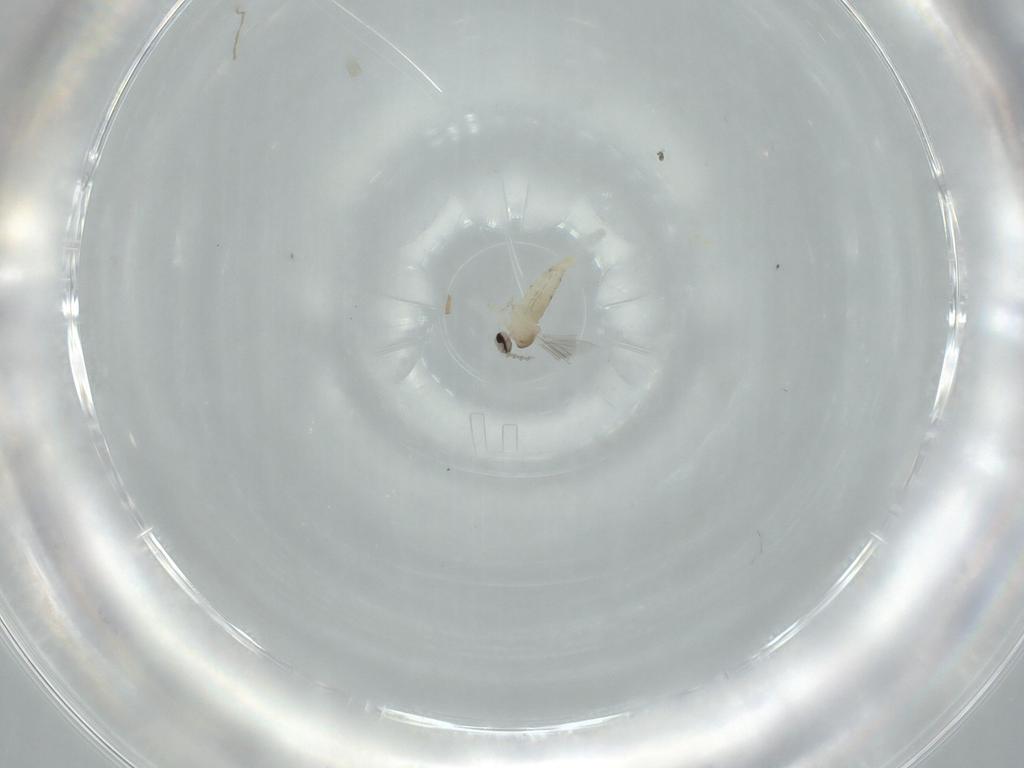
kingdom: Animalia
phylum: Arthropoda
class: Insecta
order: Diptera
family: Cecidomyiidae
